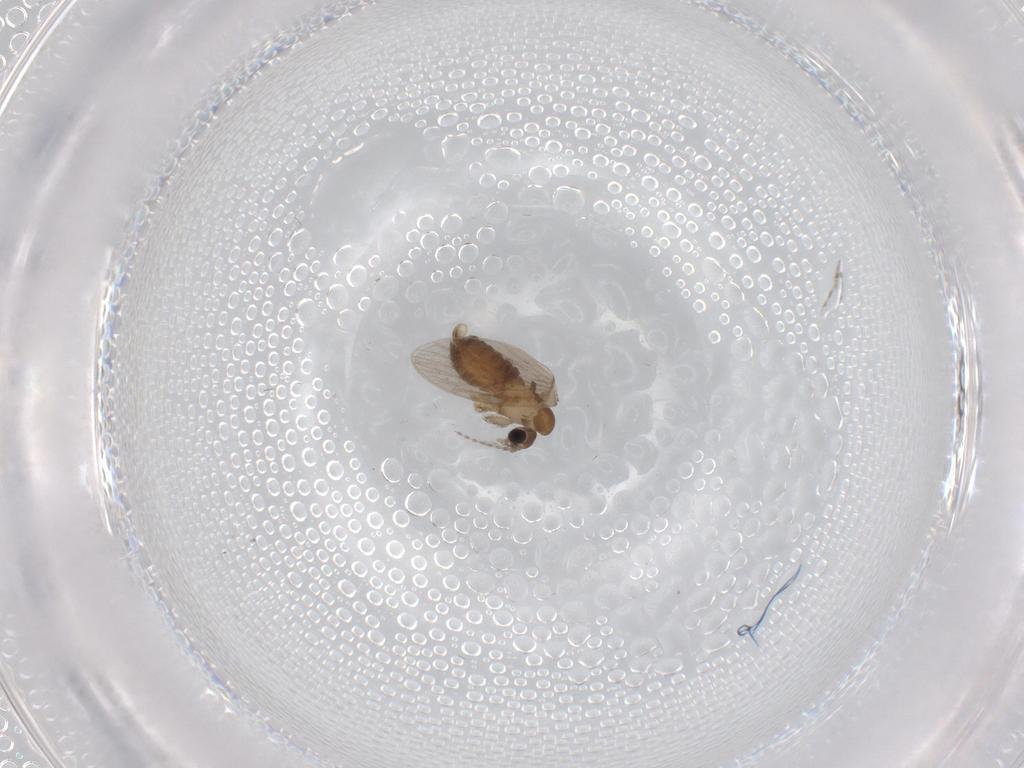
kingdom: Animalia
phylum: Arthropoda
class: Insecta
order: Diptera
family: Psychodidae
